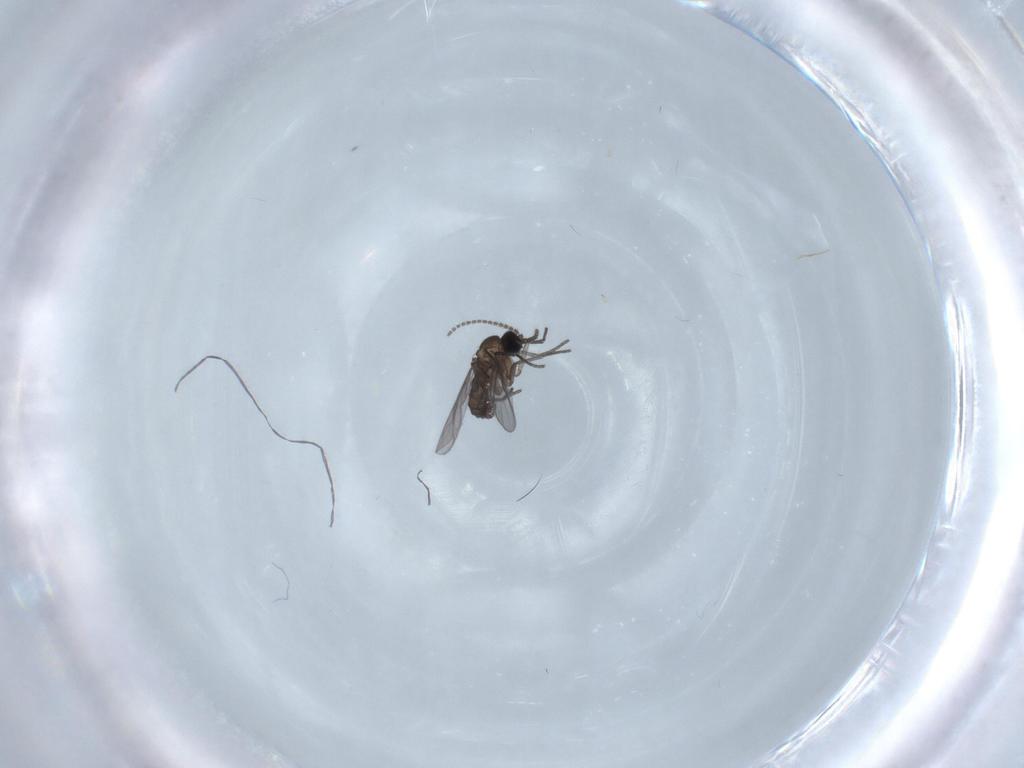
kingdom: Animalia
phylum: Arthropoda
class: Insecta
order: Diptera
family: Chironomidae
